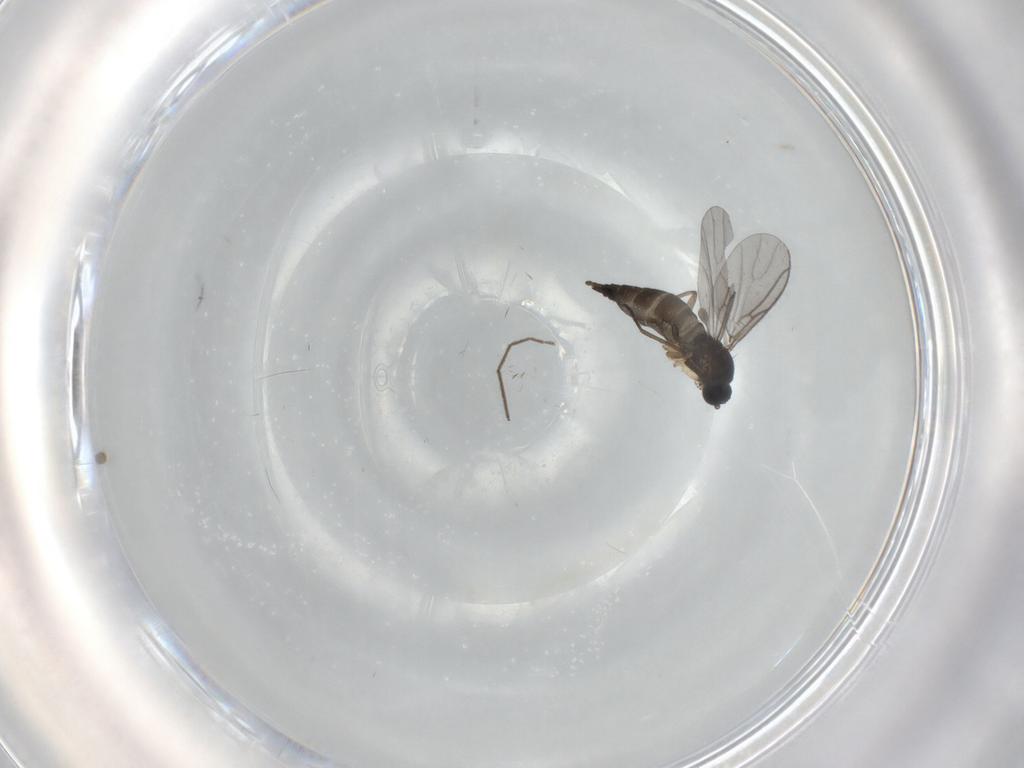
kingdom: Animalia
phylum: Arthropoda
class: Insecta
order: Diptera
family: Sciaridae
